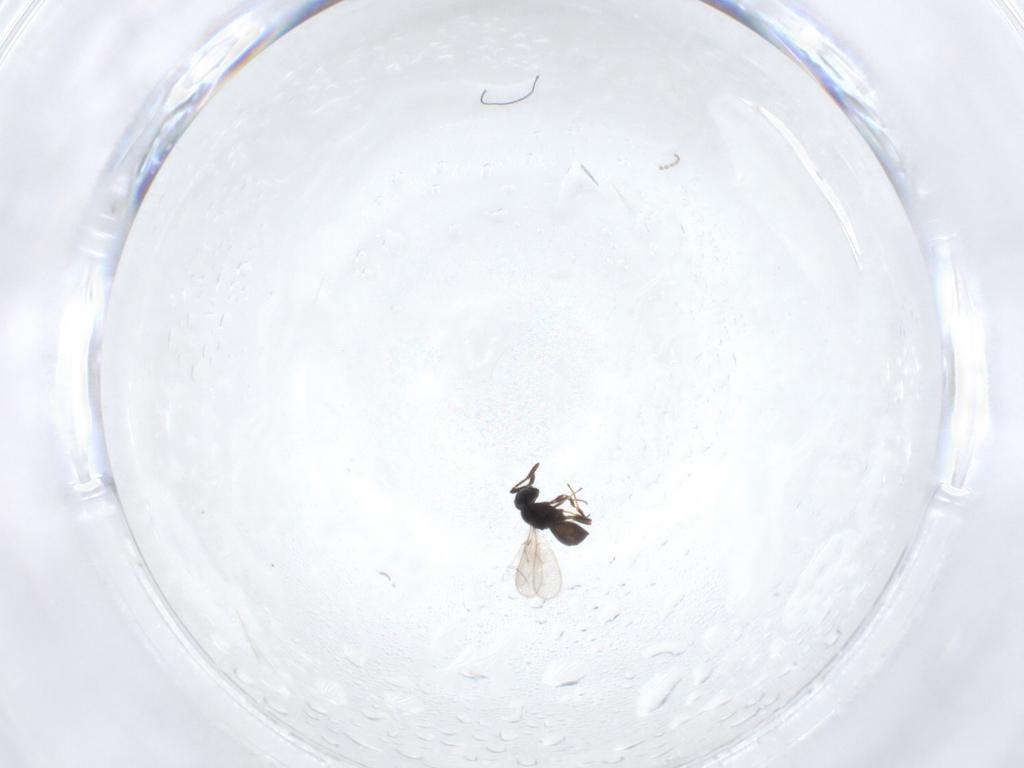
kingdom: Animalia
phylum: Arthropoda
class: Insecta
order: Hymenoptera
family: Scelionidae
